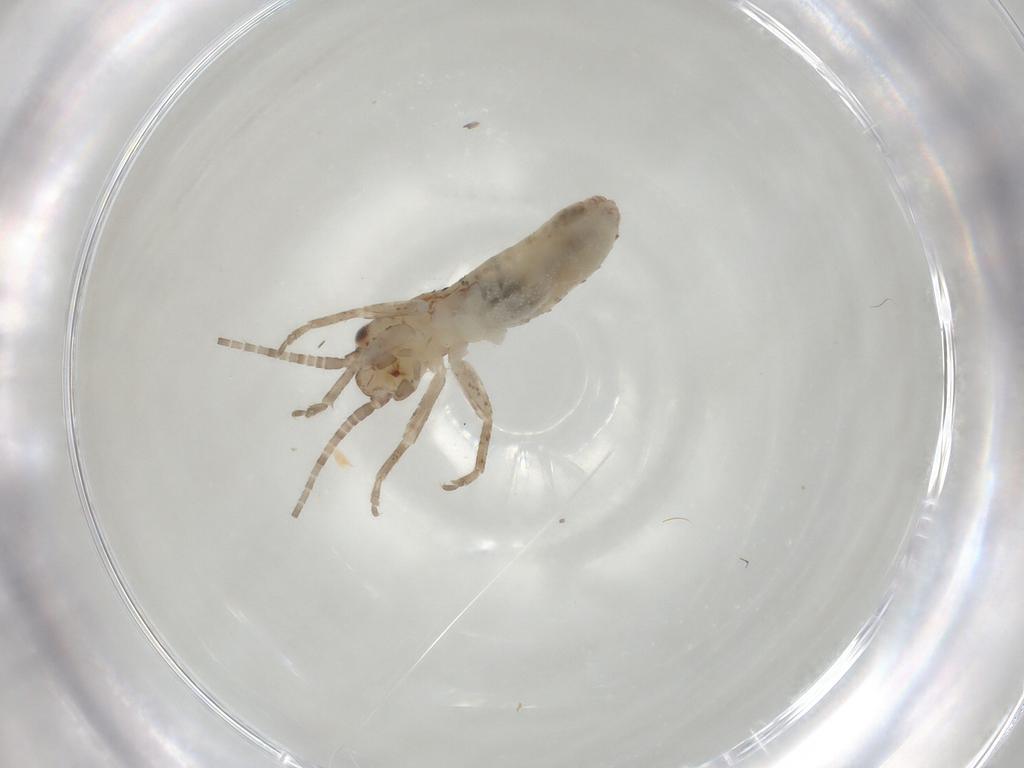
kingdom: Animalia
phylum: Arthropoda
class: Insecta
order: Orthoptera
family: Mogoplistidae
